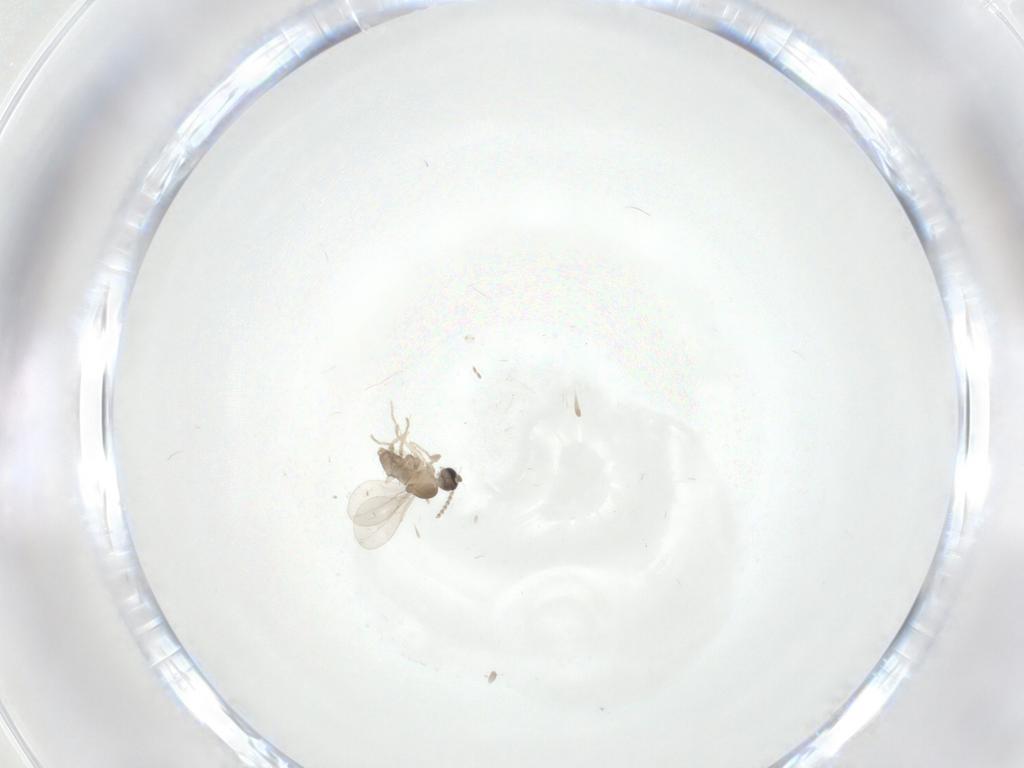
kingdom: Animalia
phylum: Arthropoda
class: Insecta
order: Diptera
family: Limoniidae
